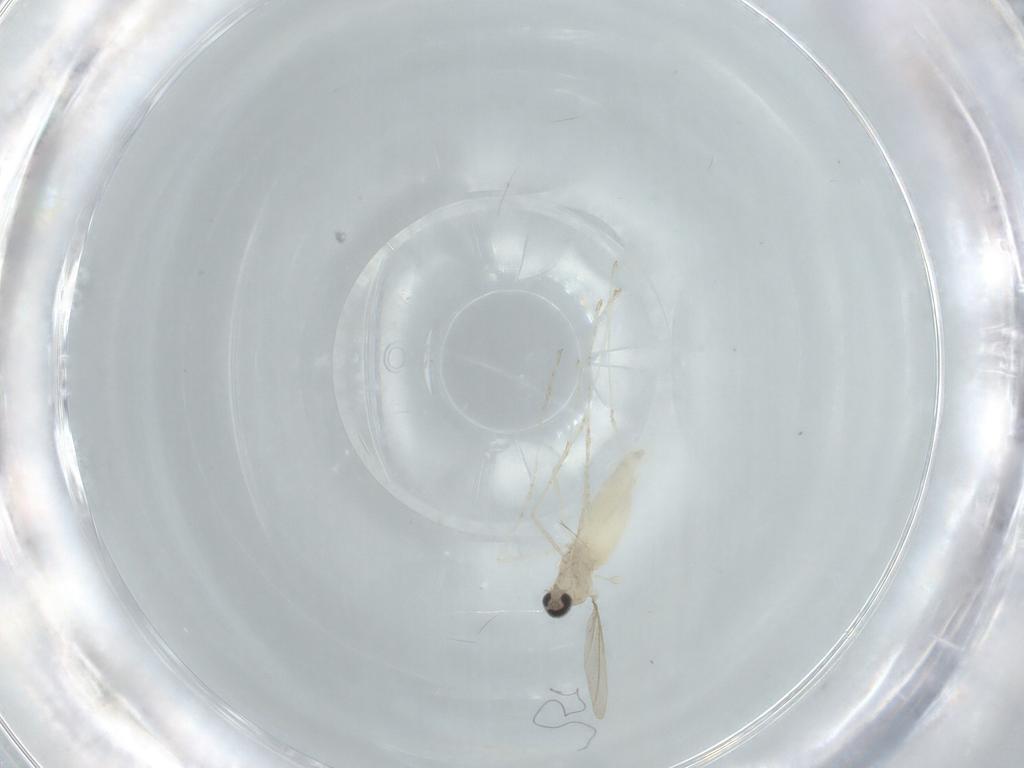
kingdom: Animalia
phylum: Arthropoda
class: Insecta
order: Diptera
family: Cecidomyiidae
